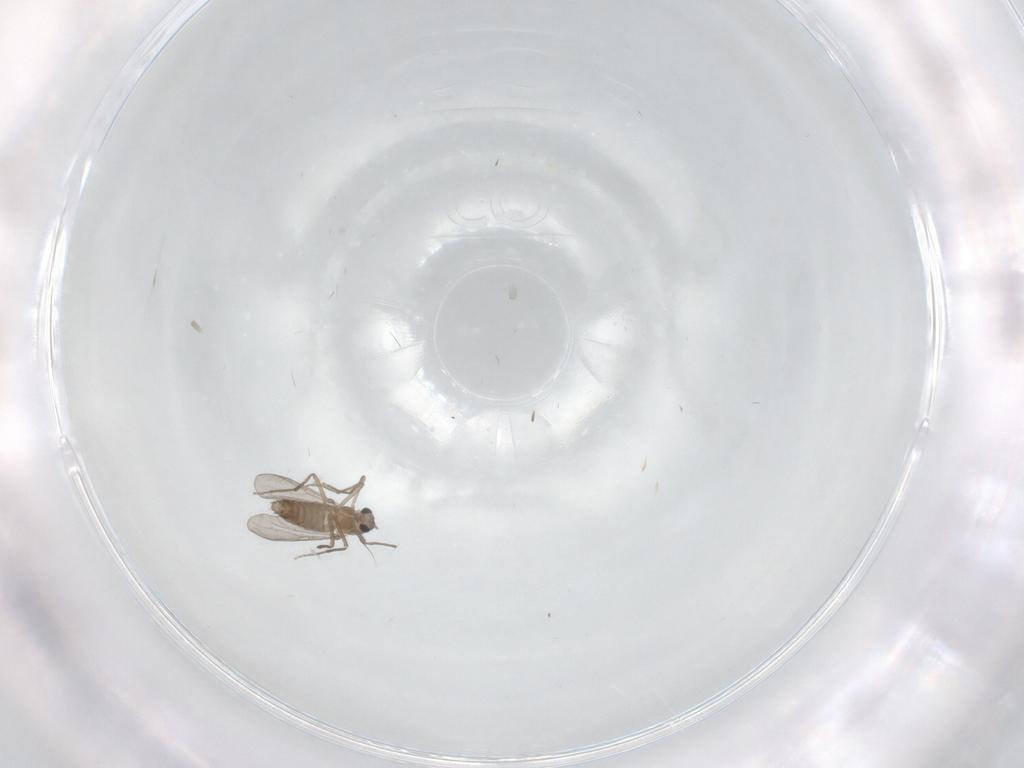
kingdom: Animalia
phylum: Arthropoda
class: Insecta
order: Diptera
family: Chironomidae
